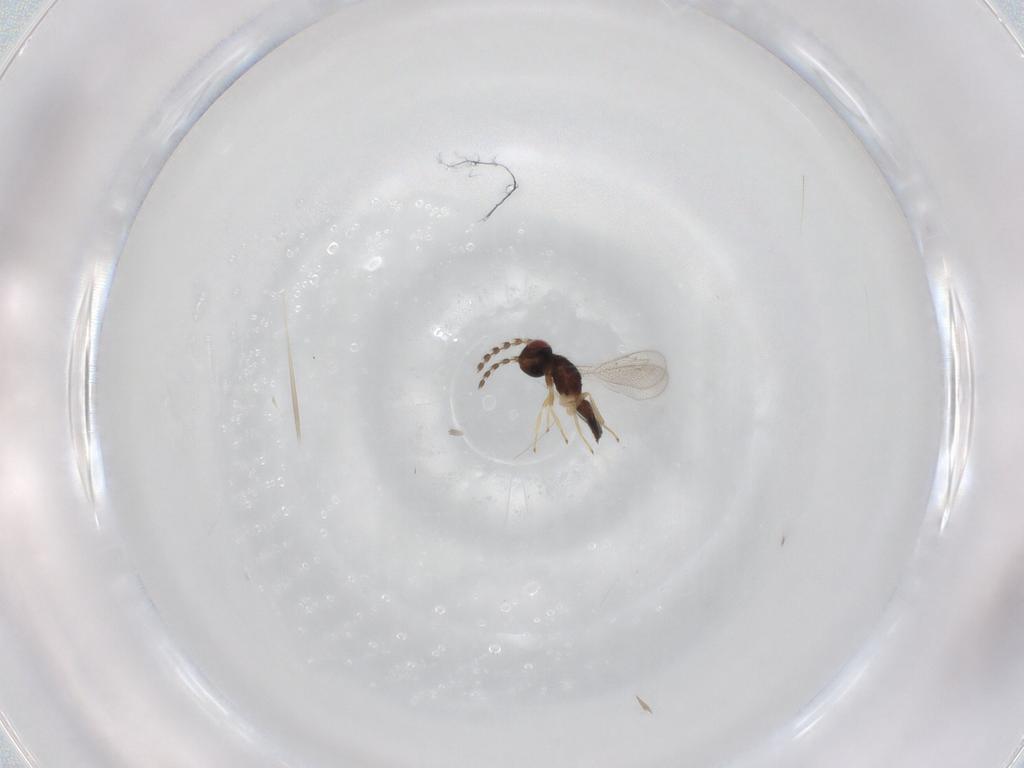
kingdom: Animalia
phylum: Arthropoda
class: Insecta
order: Hymenoptera
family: Eulophidae
